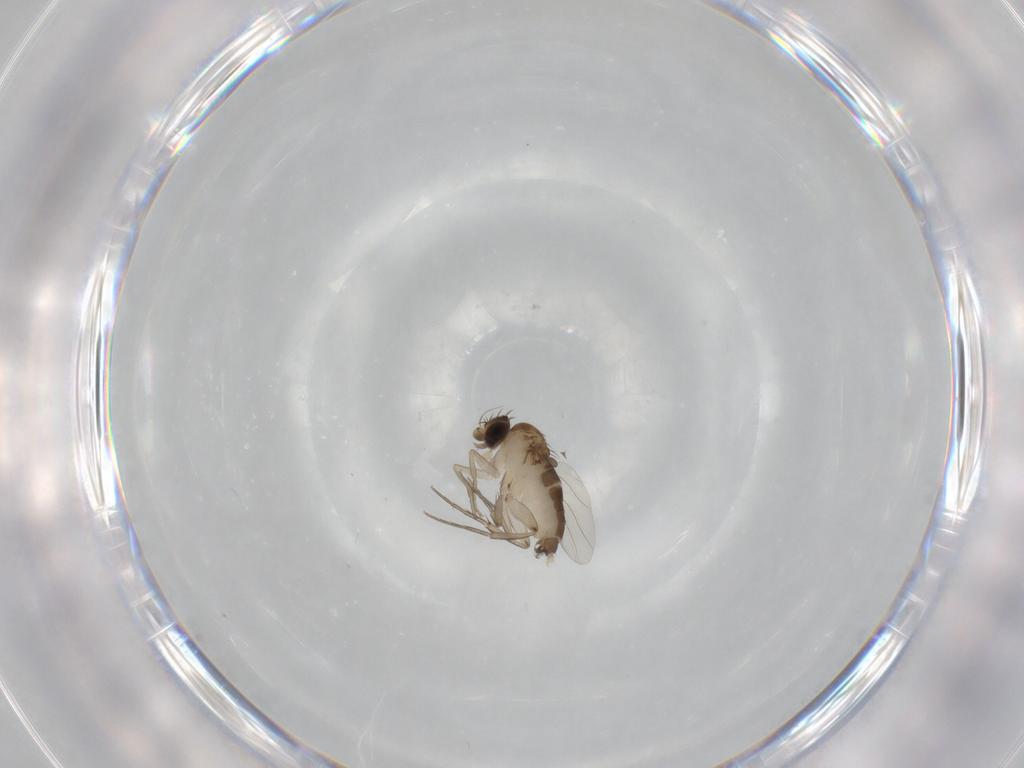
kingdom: Animalia
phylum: Arthropoda
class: Insecta
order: Diptera
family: Phoridae
